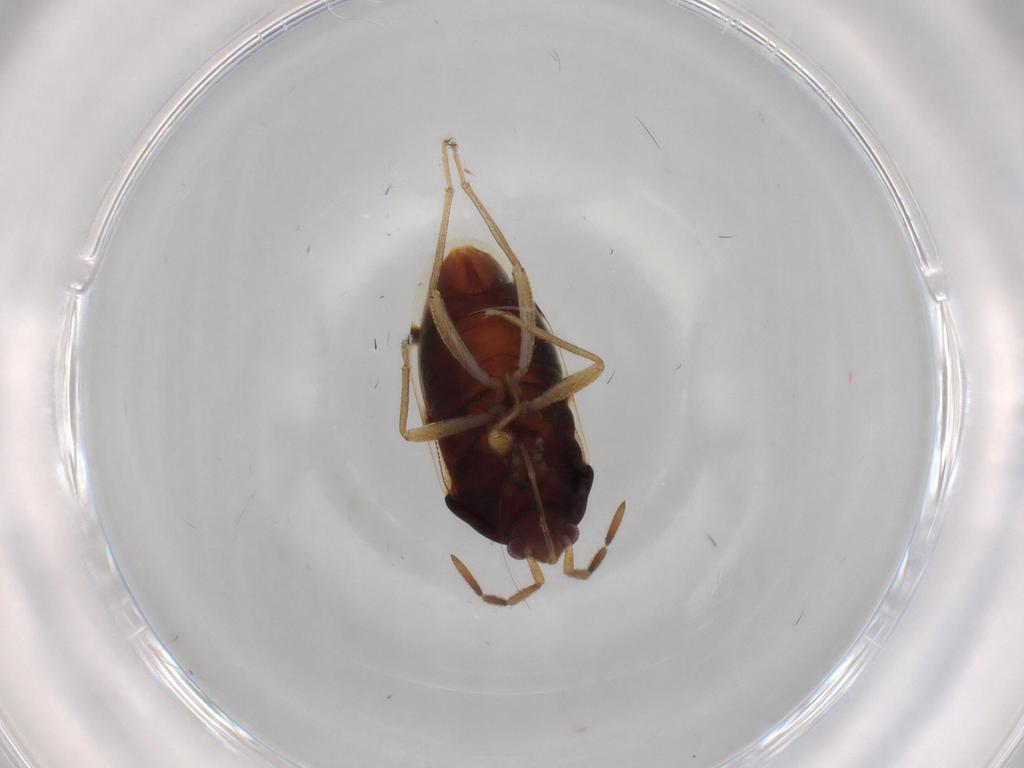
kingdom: Animalia
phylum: Arthropoda
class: Insecta
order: Hemiptera
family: Rhyparochromidae
